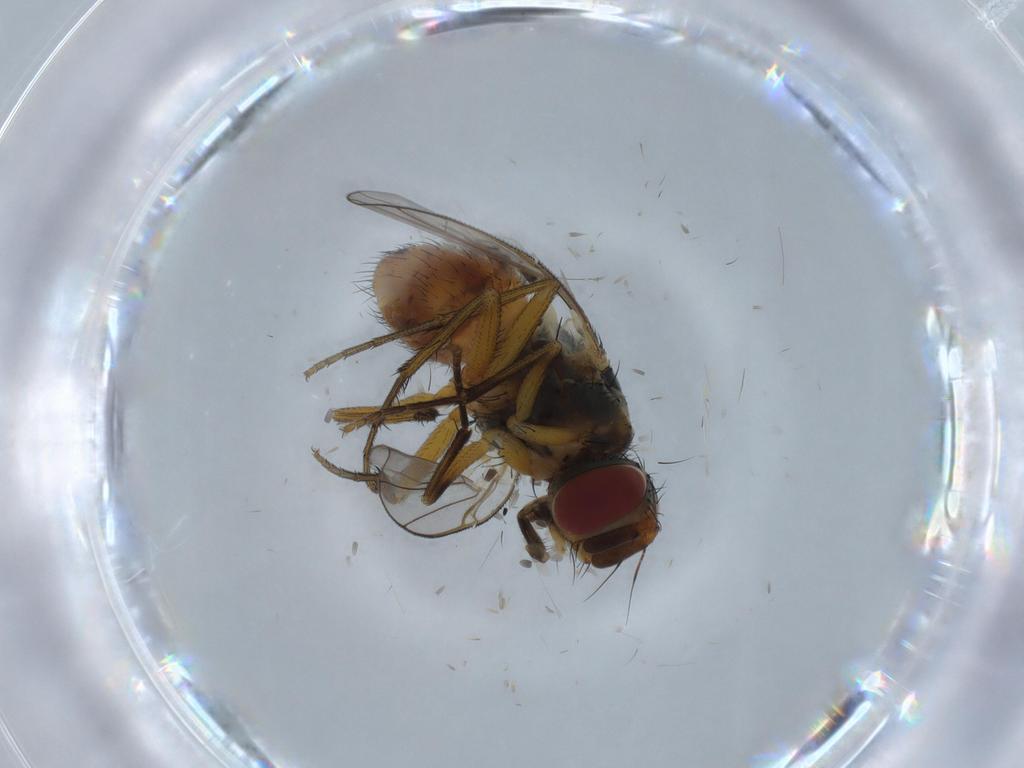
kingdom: Animalia
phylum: Arthropoda
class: Insecta
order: Diptera
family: Muscidae
